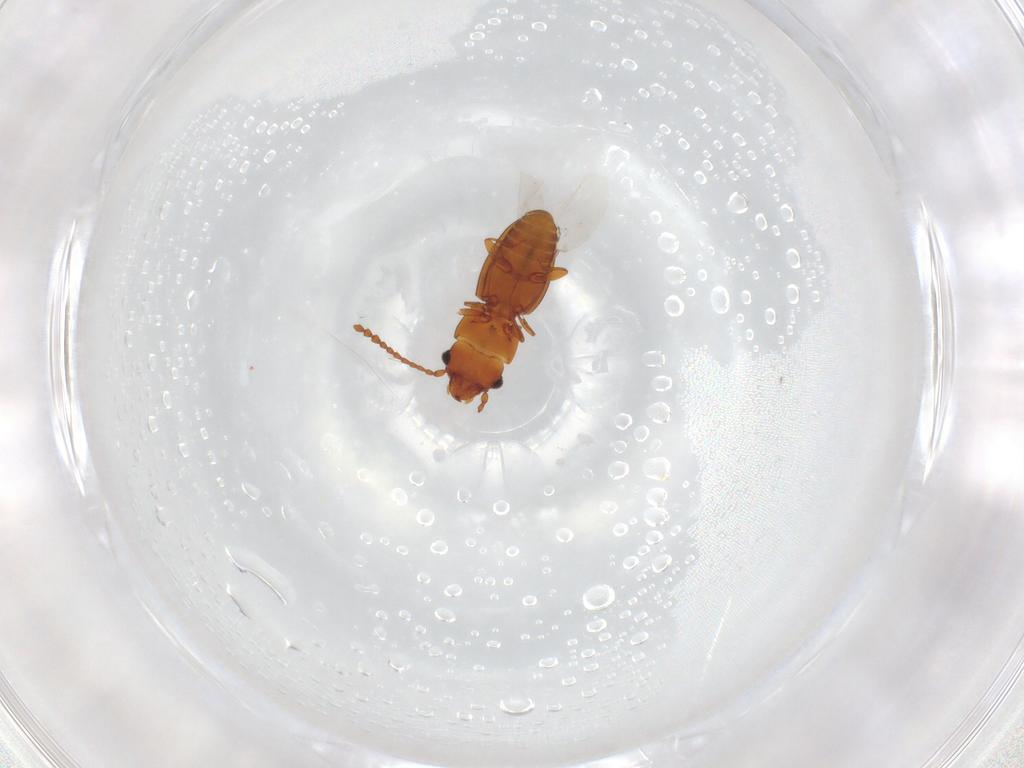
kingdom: Animalia
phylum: Arthropoda
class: Insecta
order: Coleoptera
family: Laemophloeidae
